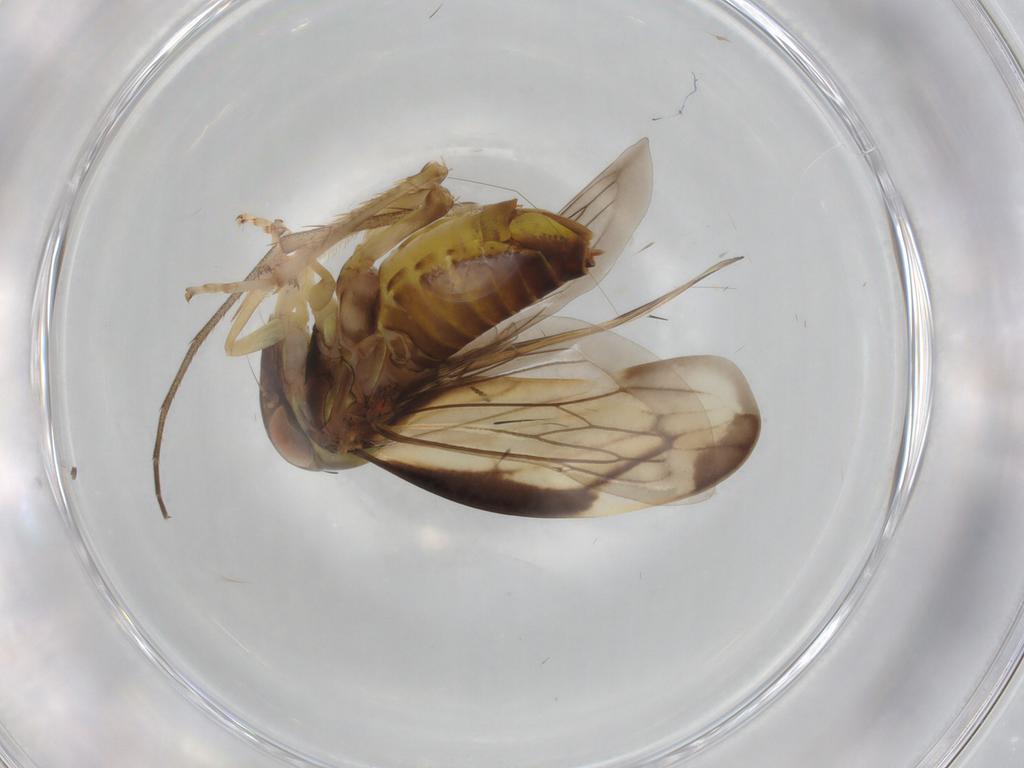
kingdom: Animalia
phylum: Arthropoda
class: Insecta
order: Hemiptera
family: Cicadellidae
